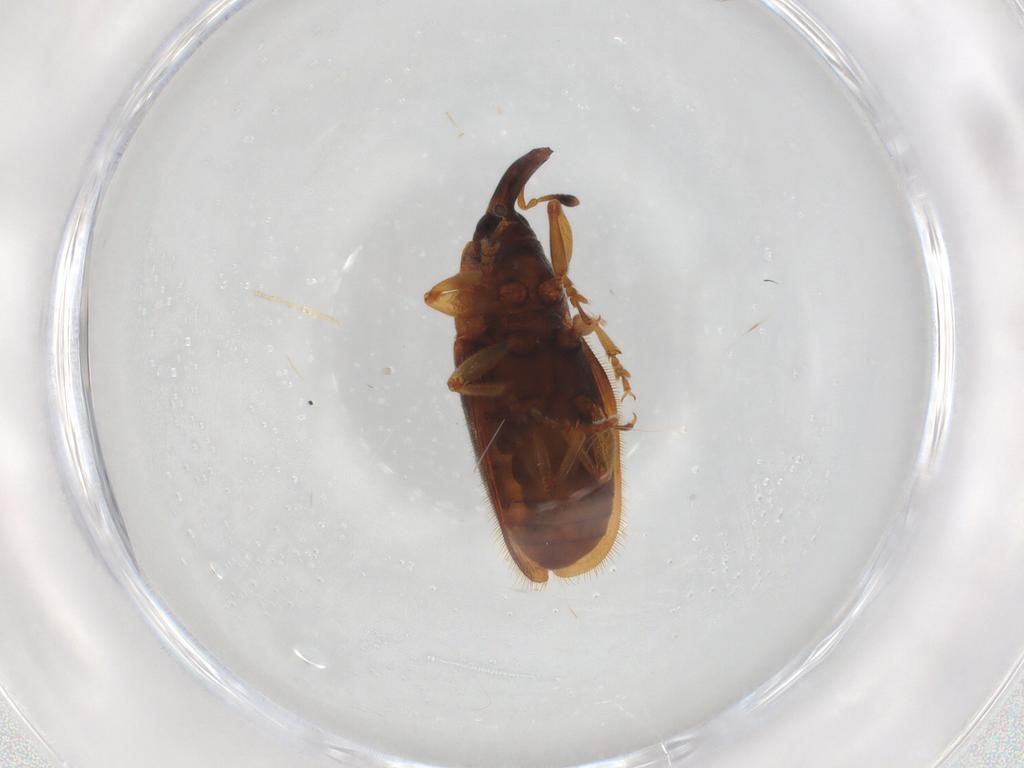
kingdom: Animalia
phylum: Arthropoda
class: Insecta
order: Coleoptera
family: Curculionidae
